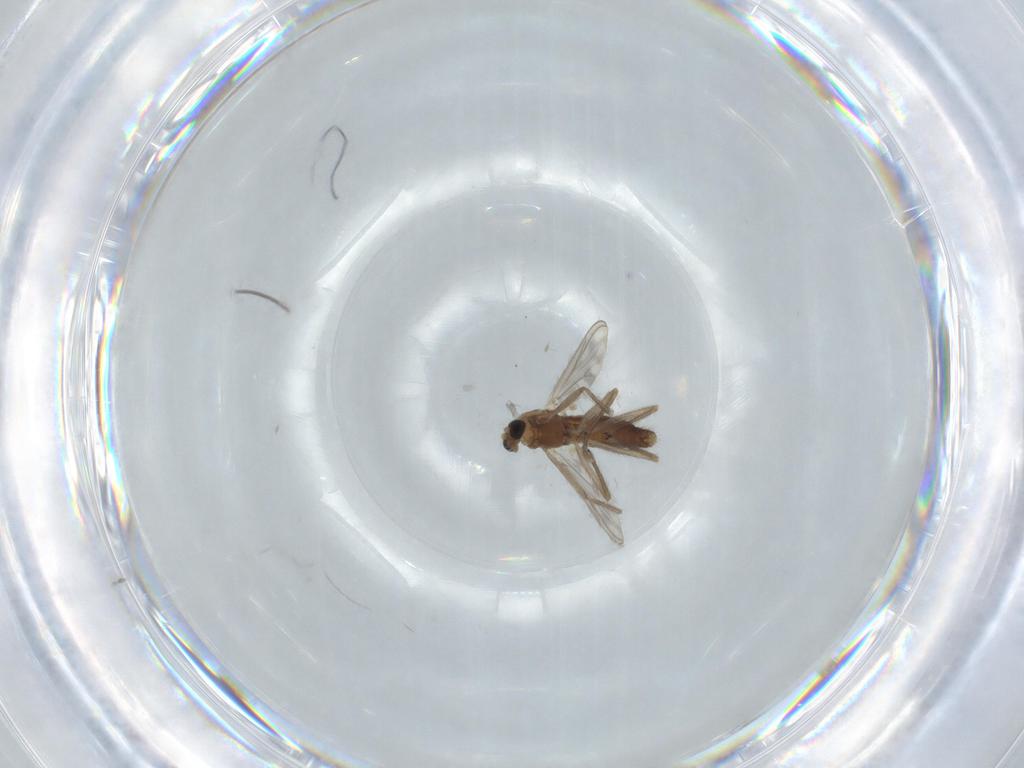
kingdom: Animalia
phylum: Arthropoda
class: Insecta
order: Diptera
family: Chironomidae
